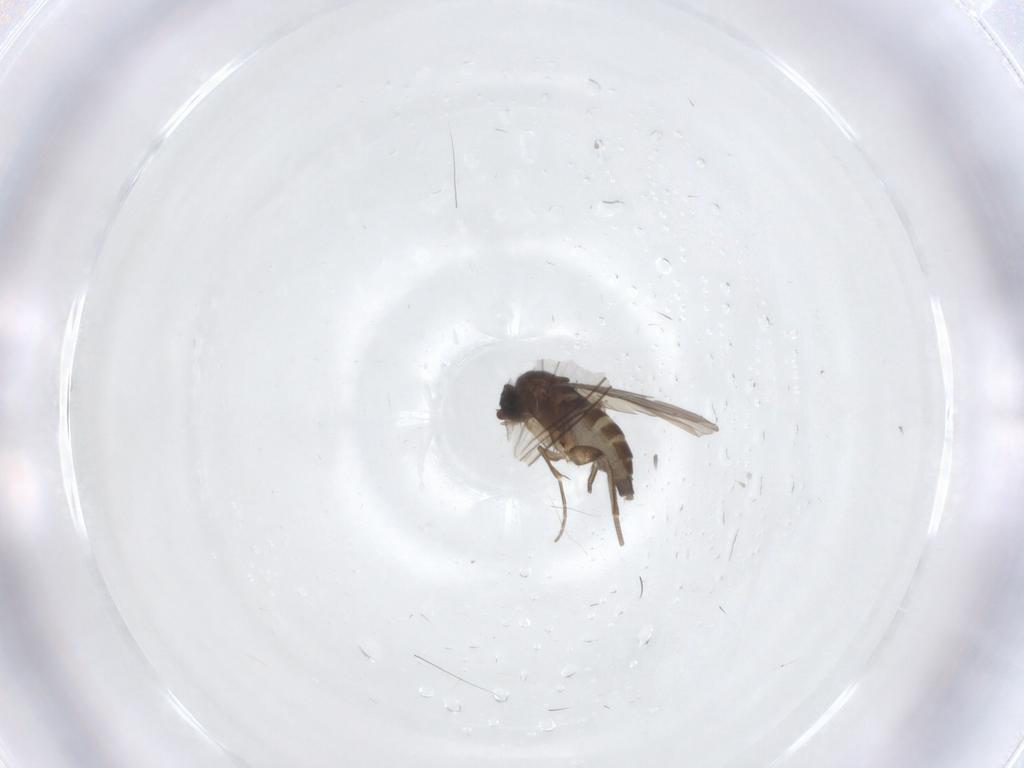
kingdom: Animalia
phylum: Arthropoda
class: Insecta
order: Diptera
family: Phoridae
